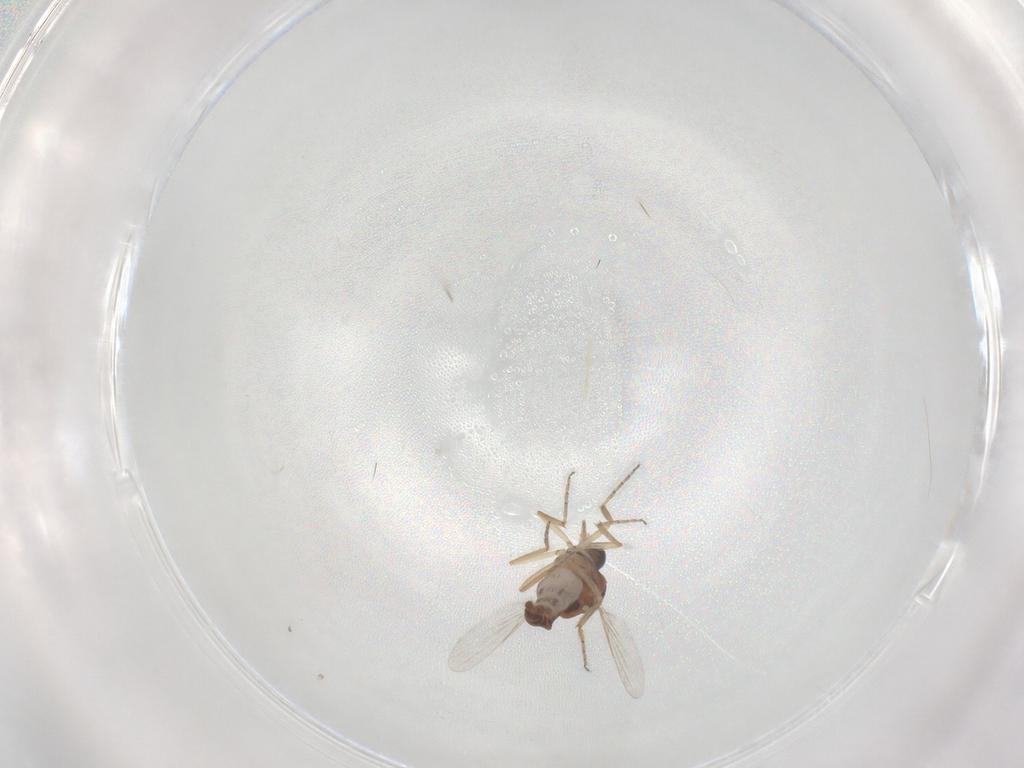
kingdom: Animalia
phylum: Arthropoda
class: Insecta
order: Diptera
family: Ceratopogonidae
